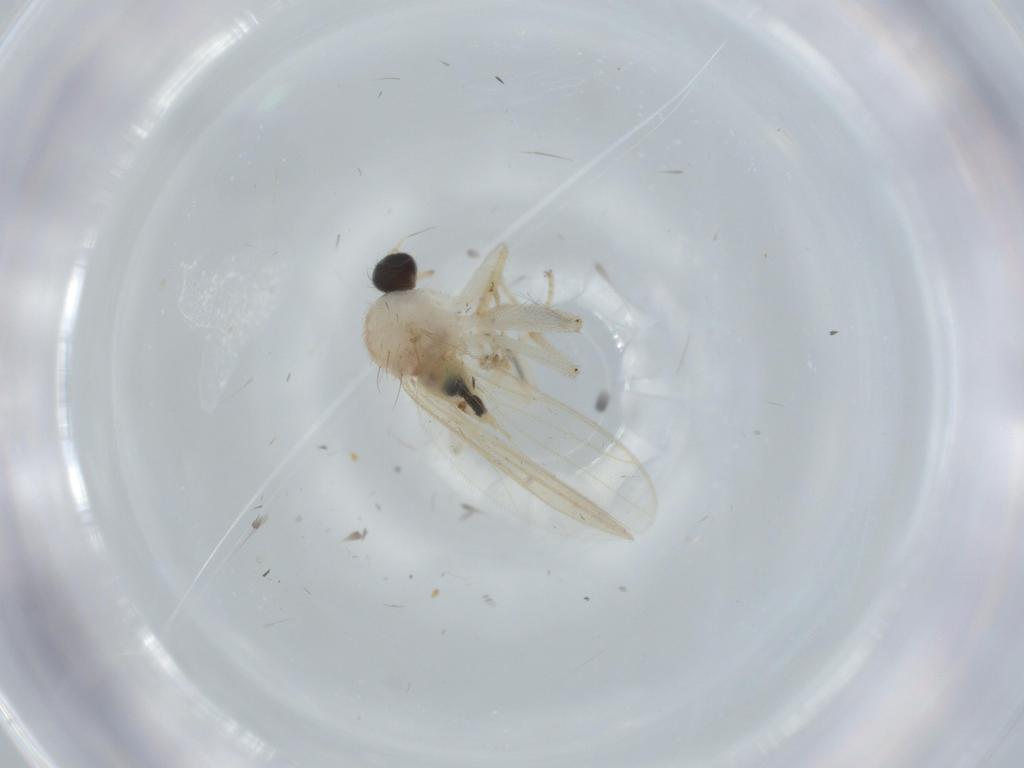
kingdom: Animalia
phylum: Arthropoda
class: Insecta
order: Diptera
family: Hybotidae
